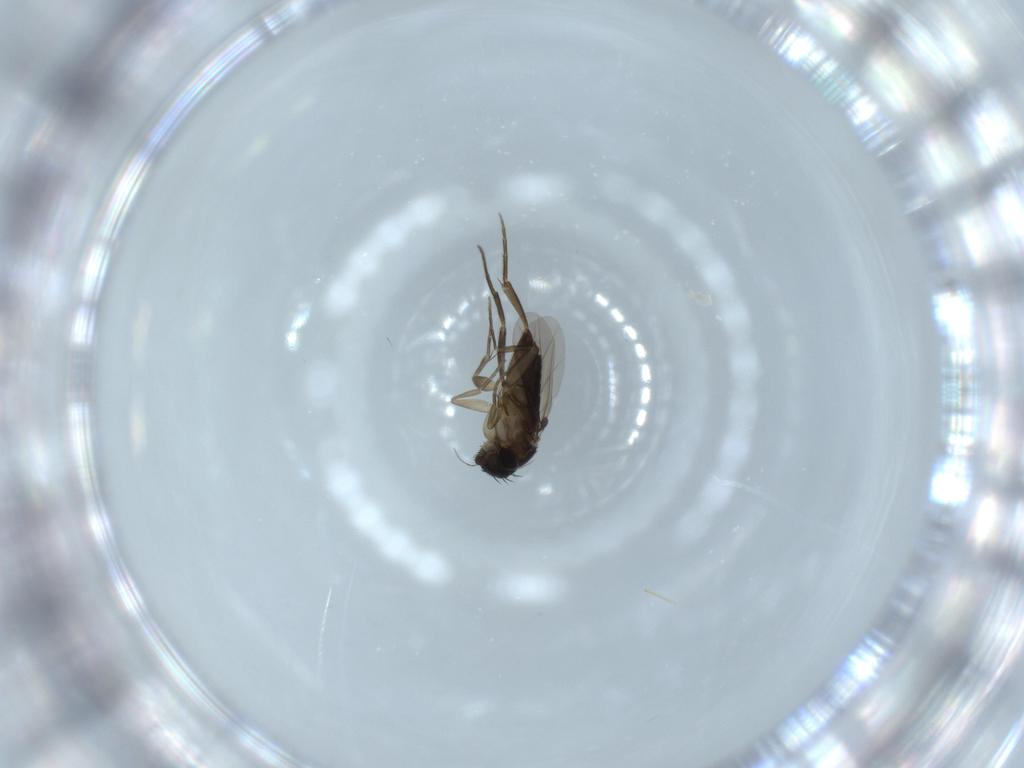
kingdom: Animalia
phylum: Arthropoda
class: Insecta
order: Diptera
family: Phoridae
